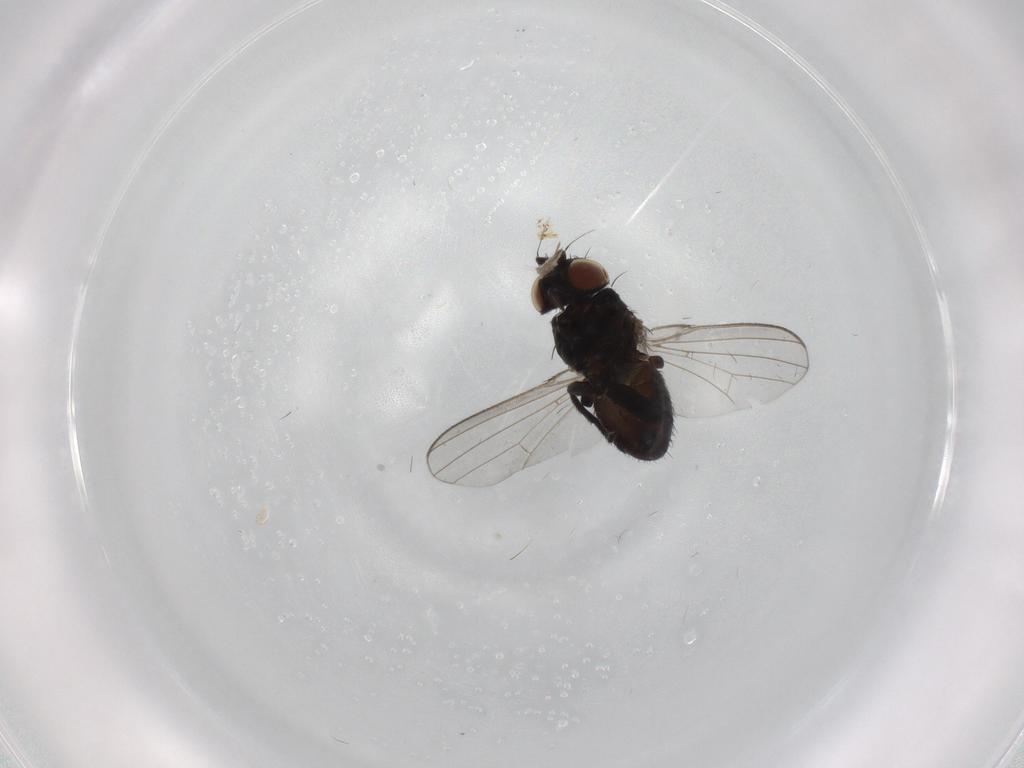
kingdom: Animalia
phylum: Arthropoda
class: Insecta
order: Diptera
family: Milichiidae
